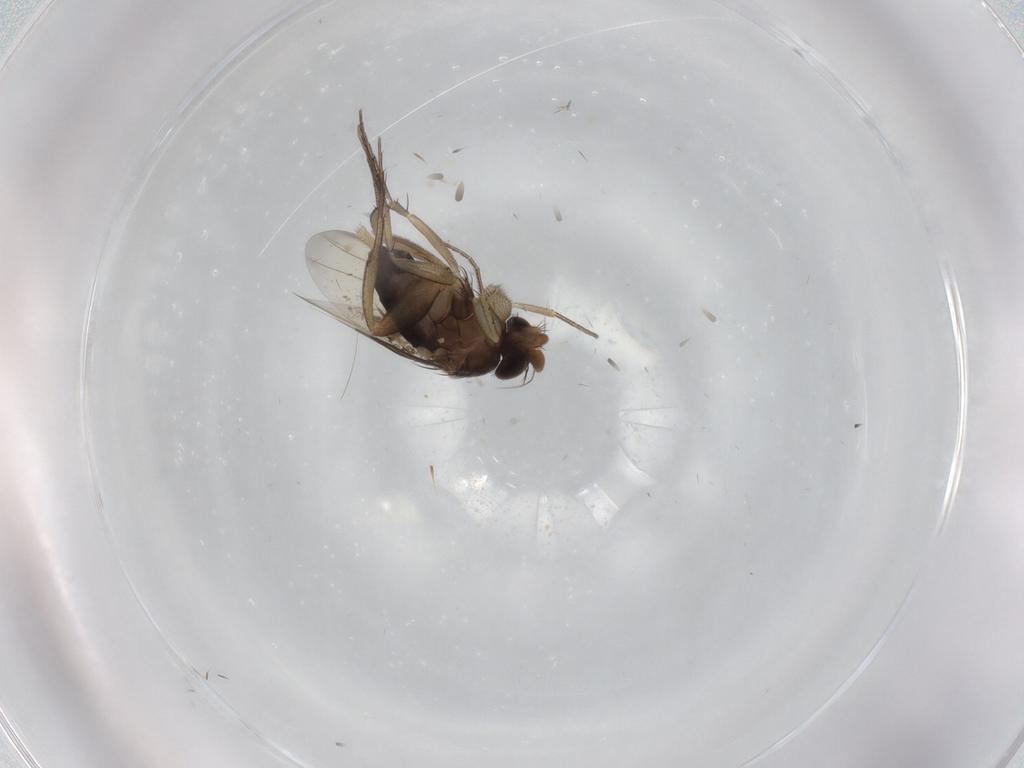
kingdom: Animalia
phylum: Arthropoda
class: Insecta
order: Diptera
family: Phoridae
